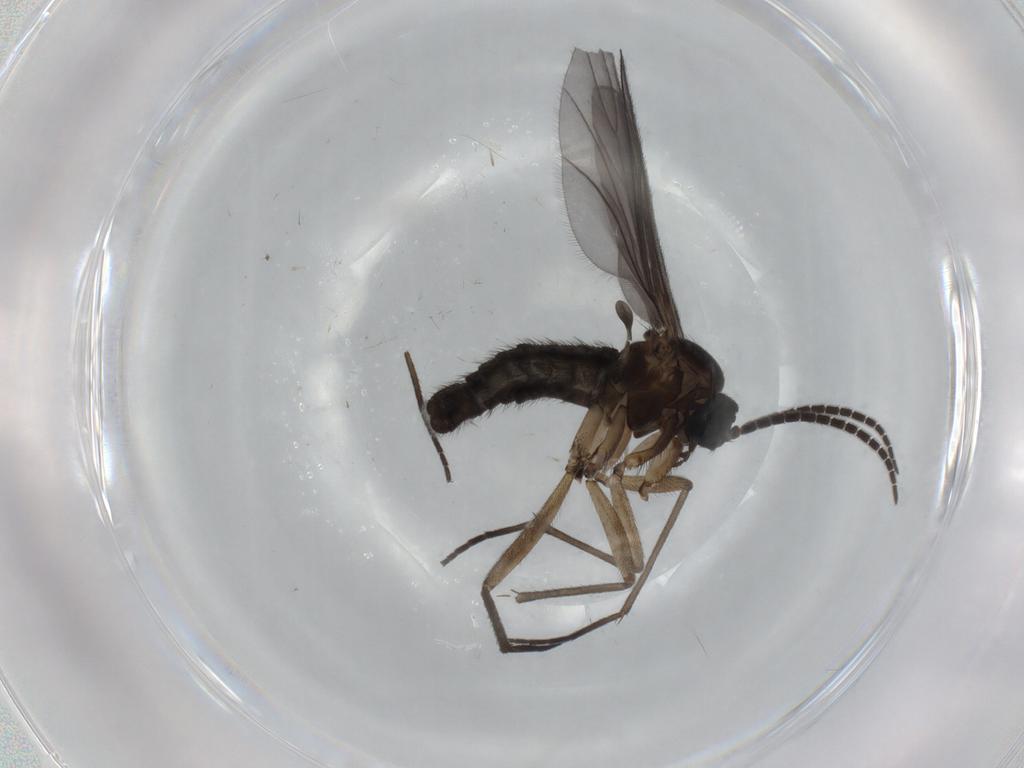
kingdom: Animalia
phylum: Arthropoda
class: Insecta
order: Diptera
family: Sciaridae
